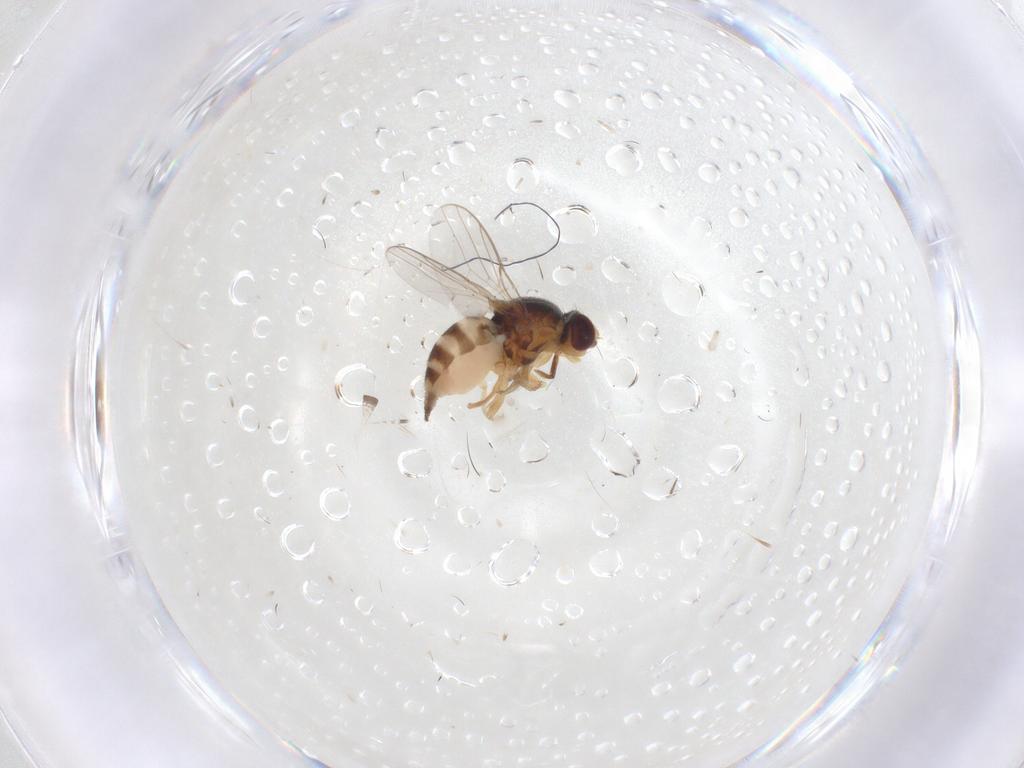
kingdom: Animalia
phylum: Arthropoda
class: Insecta
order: Diptera
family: Chloropidae
